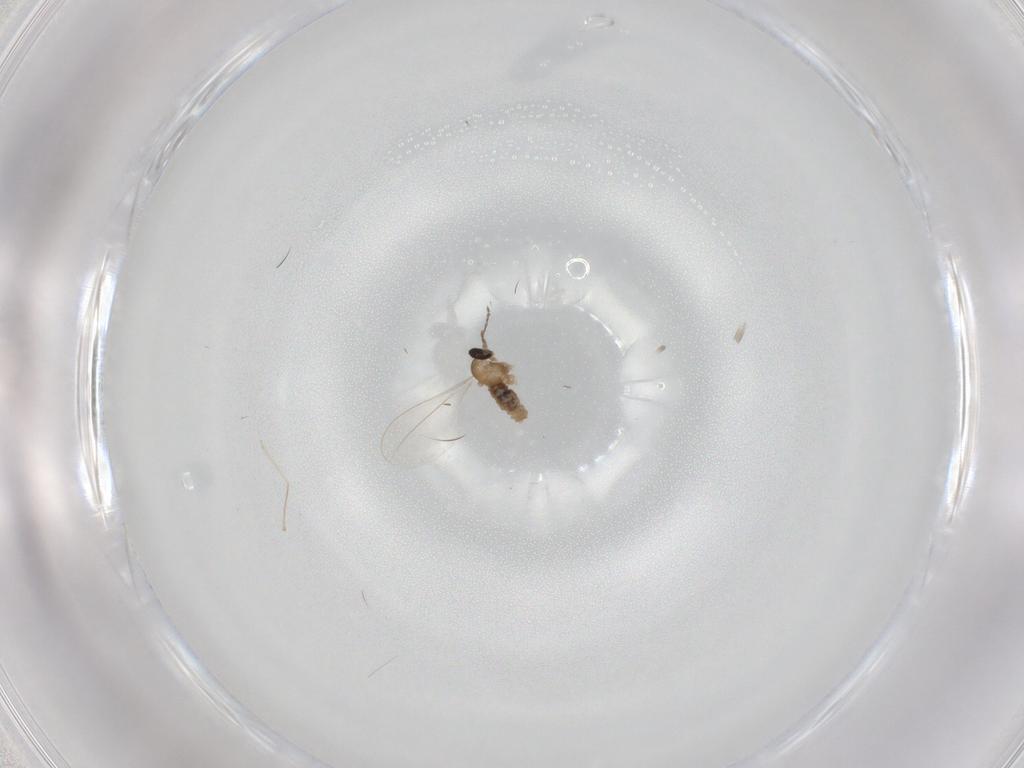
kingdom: Animalia
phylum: Arthropoda
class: Insecta
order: Diptera
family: Cecidomyiidae
